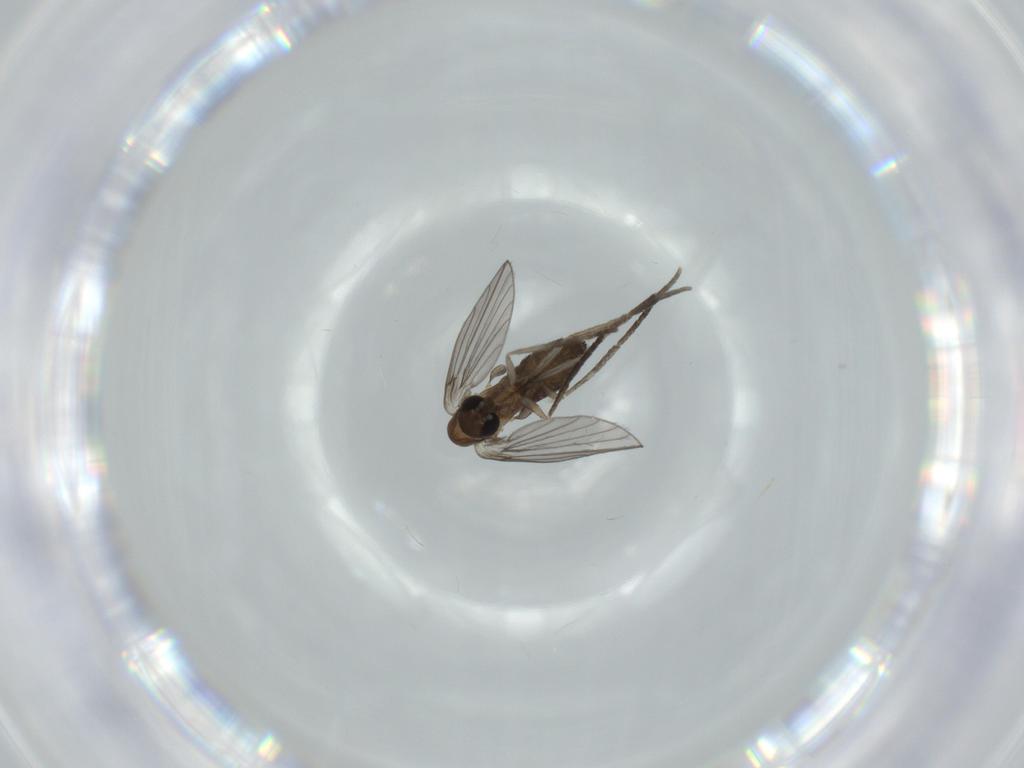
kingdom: Animalia
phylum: Arthropoda
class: Insecta
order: Diptera
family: Psychodidae
